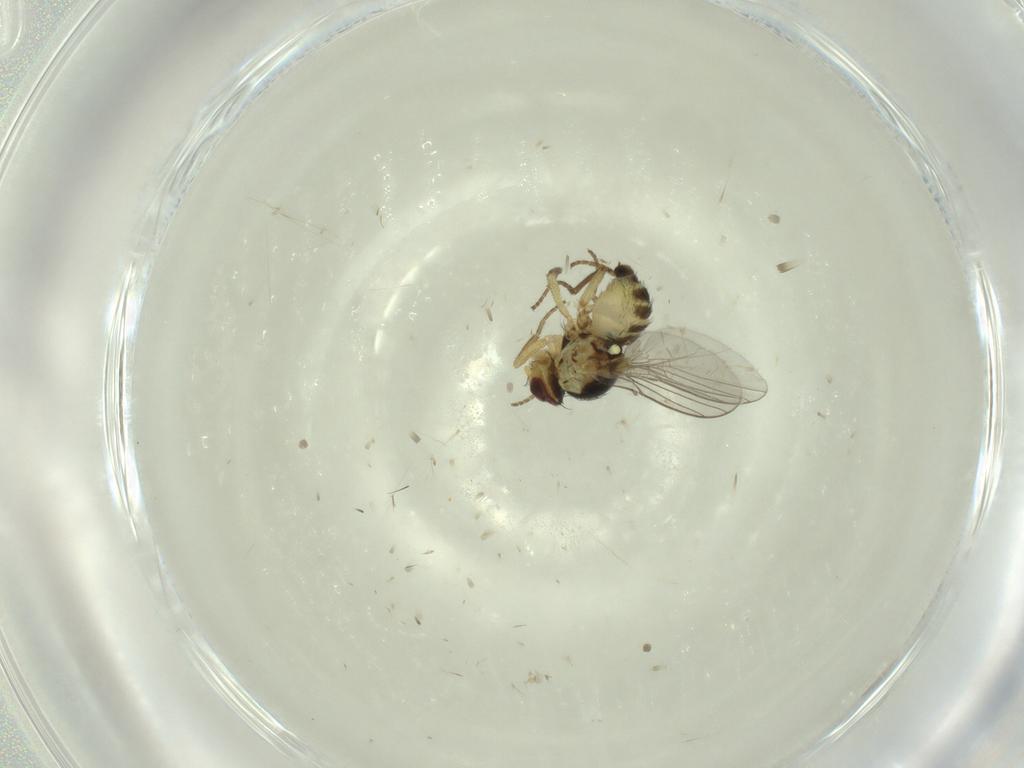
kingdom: Animalia
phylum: Arthropoda
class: Insecta
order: Diptera
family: Agromyzidae
